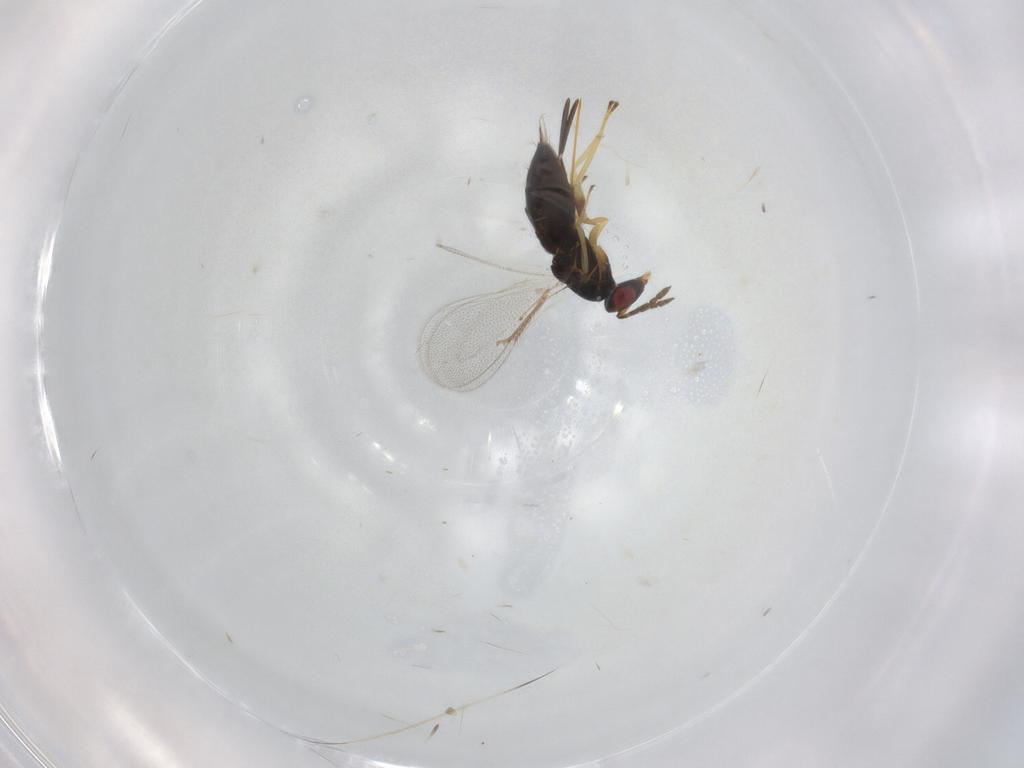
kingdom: Animalia
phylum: Arthropoda
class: Insecta
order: Hymenoptera
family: Eulophidae
